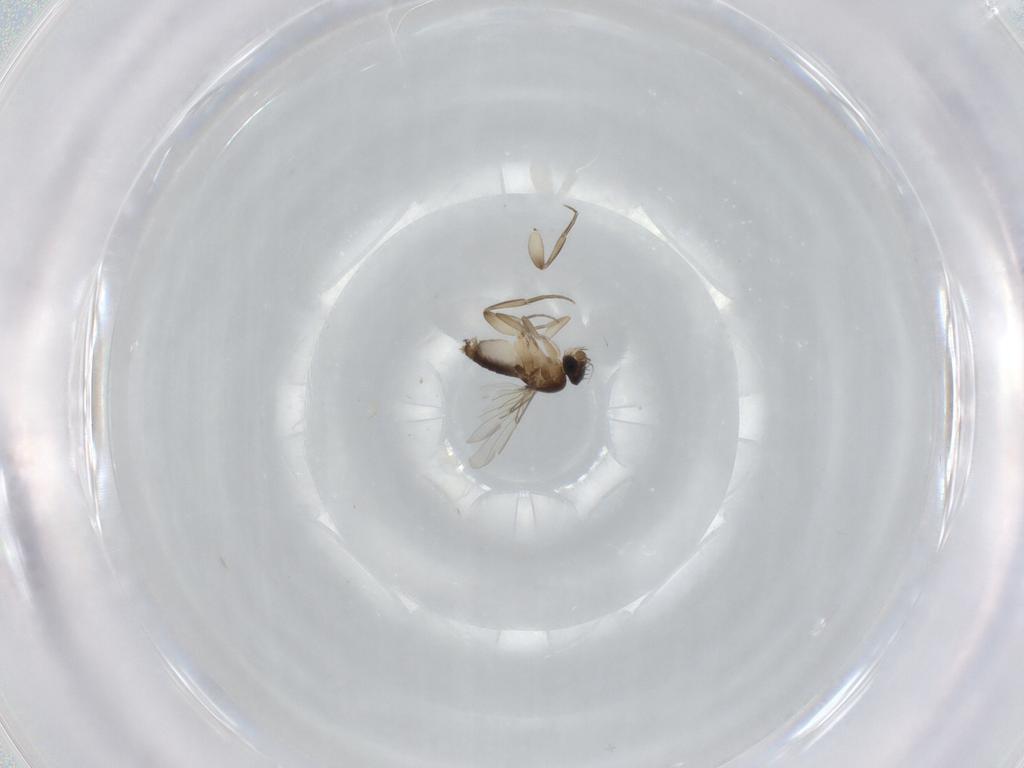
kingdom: Animalia
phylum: Arthropoda
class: Insecta
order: Diptera
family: Phoridae
